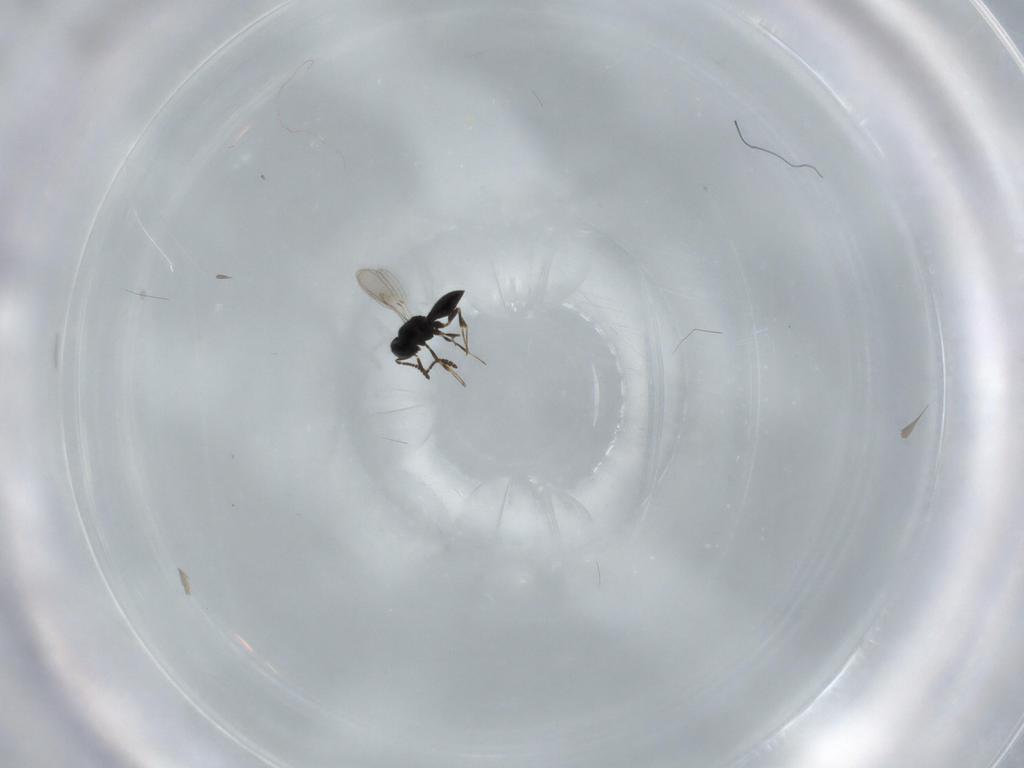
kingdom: Animalia
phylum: Arthropoda
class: Insecta
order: Hymenoptera
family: Scelionidae
